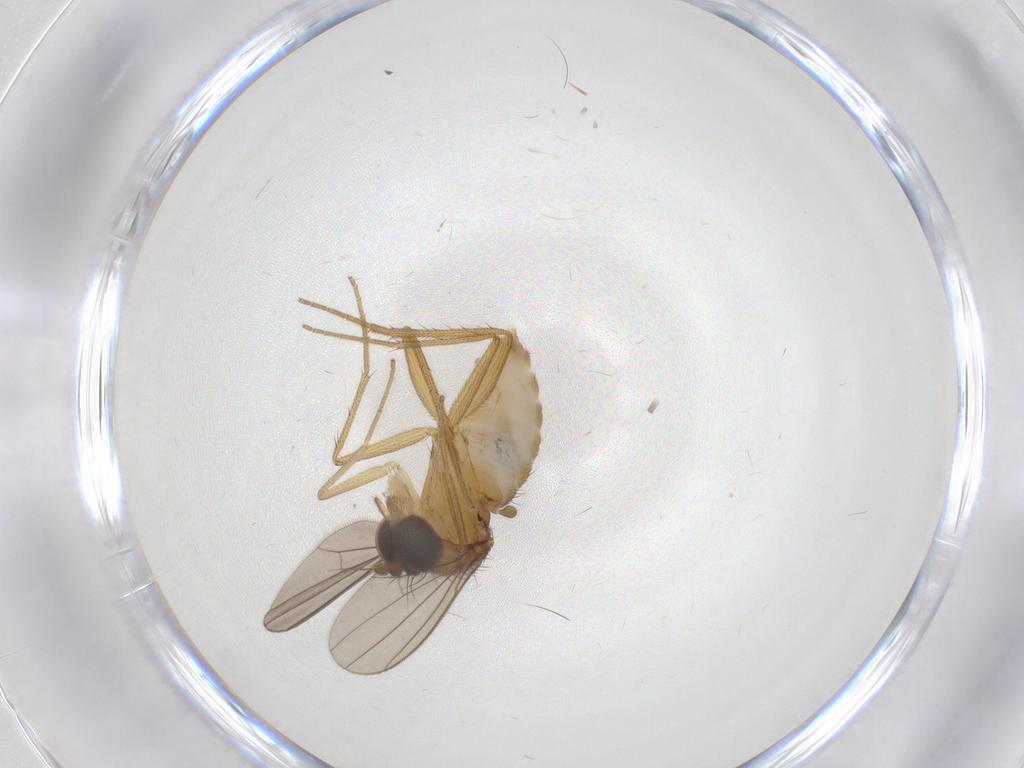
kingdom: Animalia
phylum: Arthropoda
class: Insecta
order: Diptera
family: Dolichopodidae
